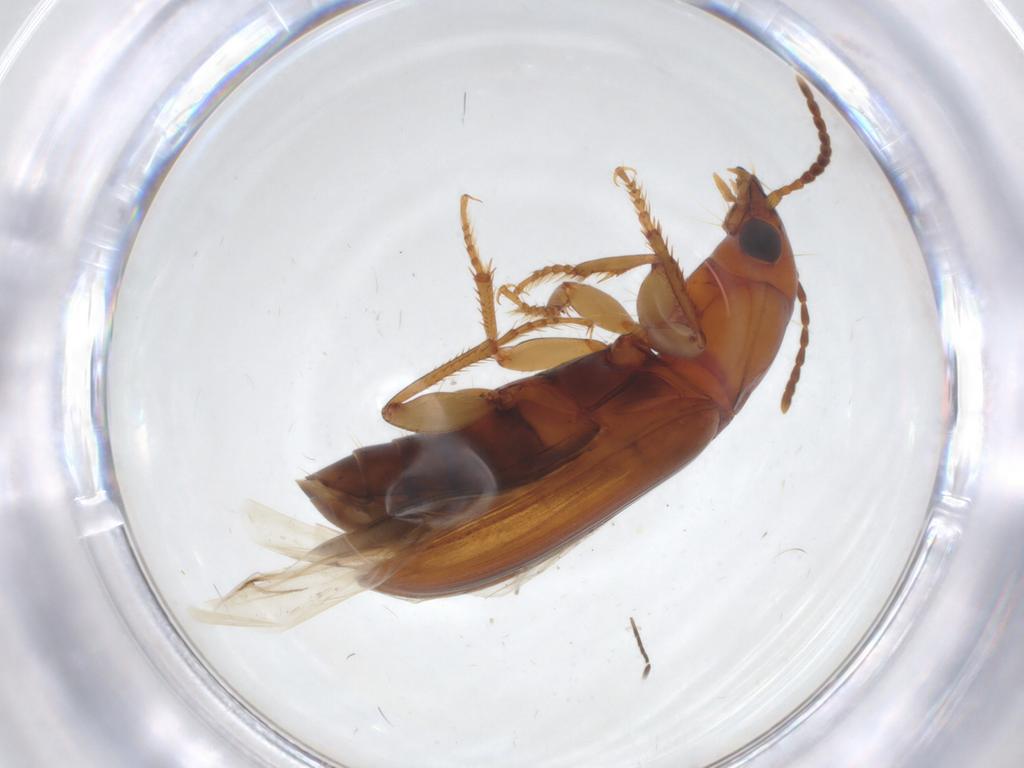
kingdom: Animalia
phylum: Arthropoda
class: Insecta
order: Coleoptera
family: Carabidae
